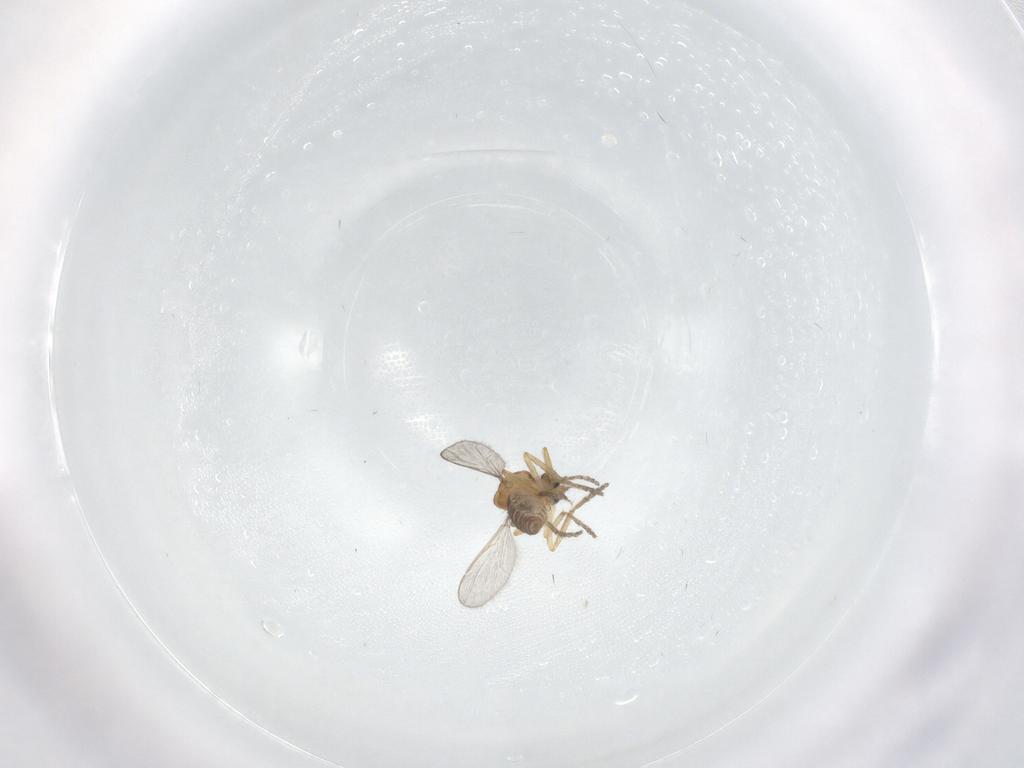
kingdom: Animalia
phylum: Arthropoda
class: Insecta
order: Diptera
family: Ceratopogonidae
